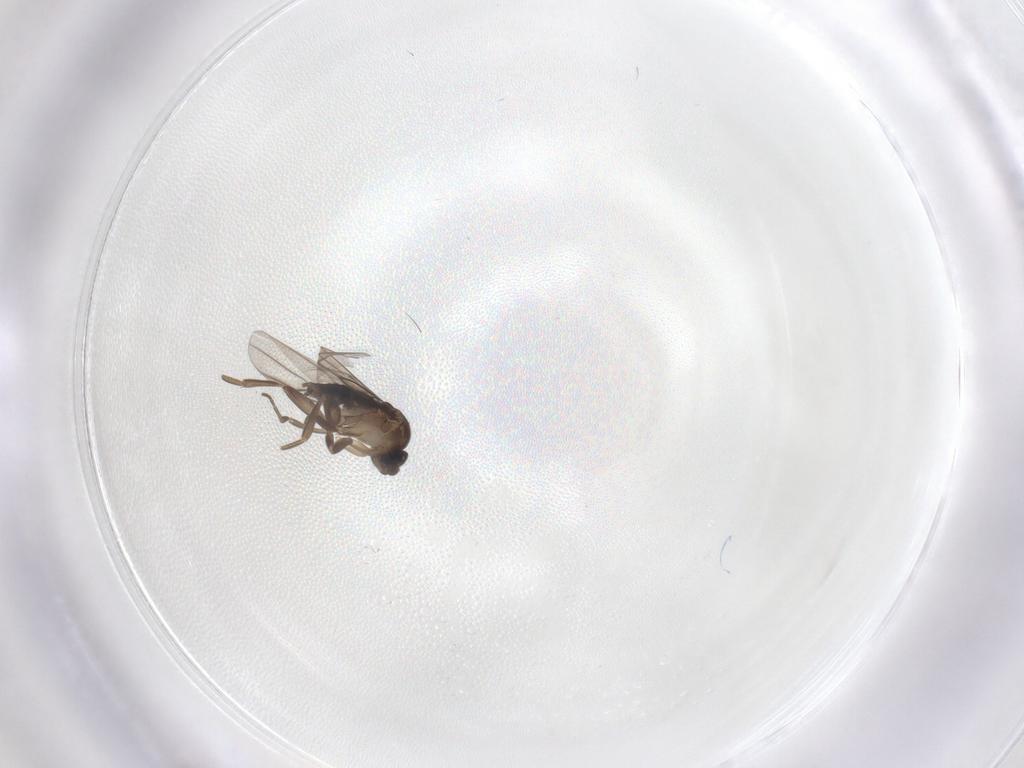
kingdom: Animalia
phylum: Arthropoda
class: Insecta
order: Diptera
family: Phoridae
